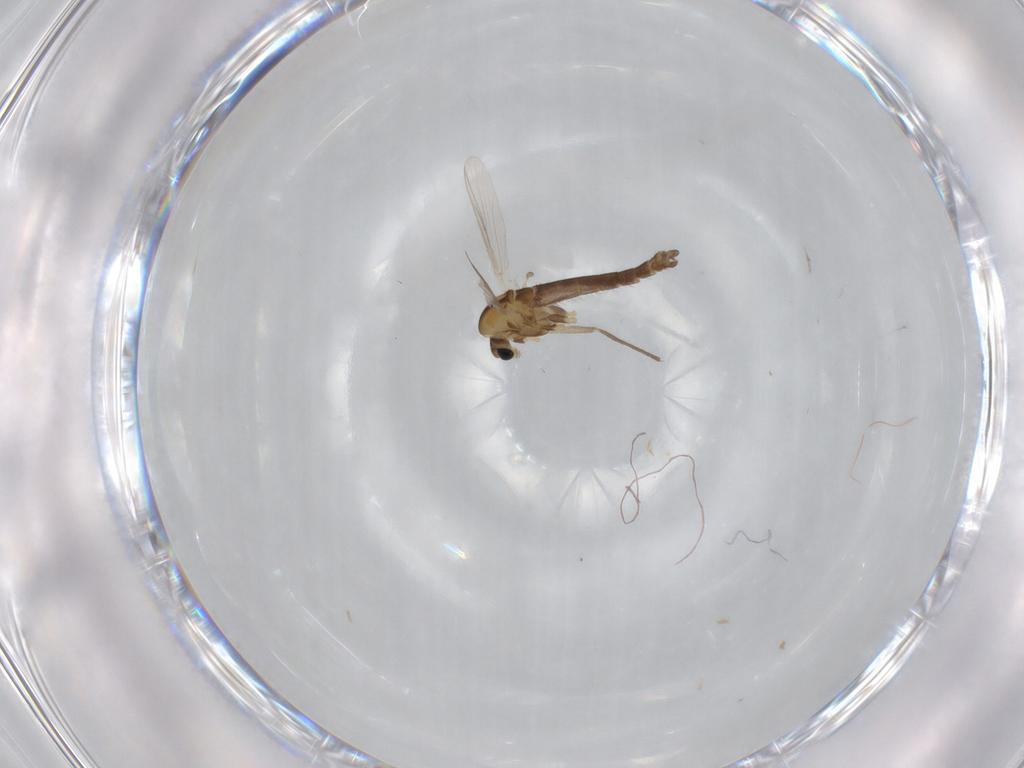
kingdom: Animalia
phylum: Arthropoda
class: Insecta
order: Diptera
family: Chironomidae
